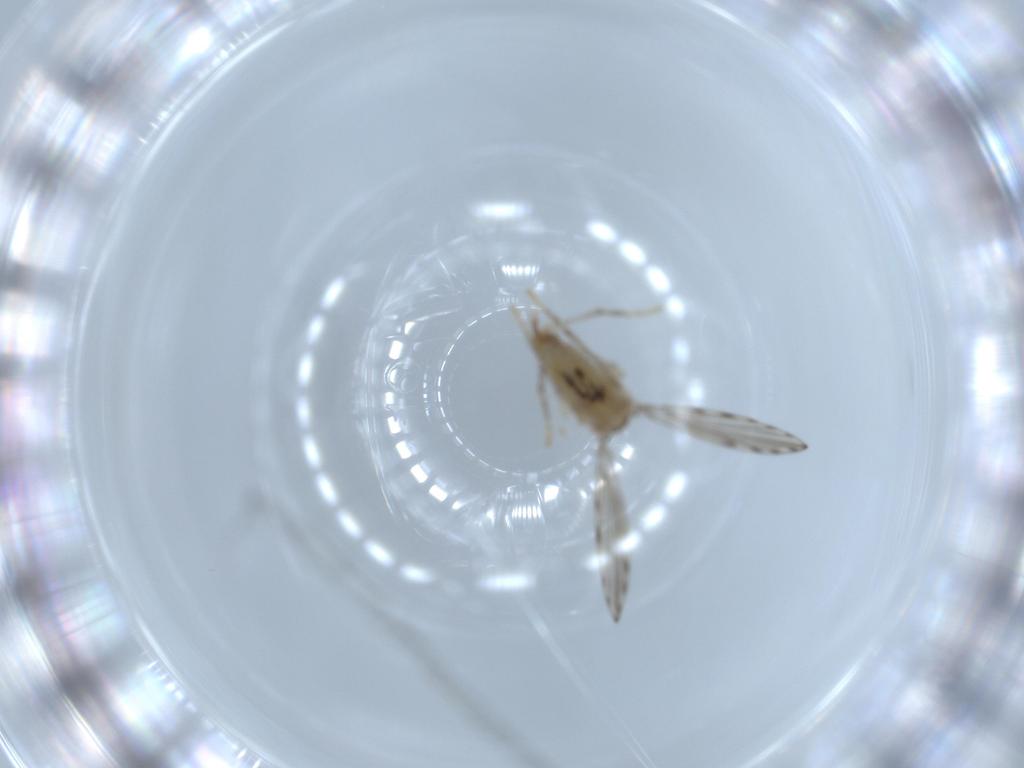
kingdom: Animalia
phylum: Arthropoda
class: Insecta
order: Diptera
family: Psychodidae
